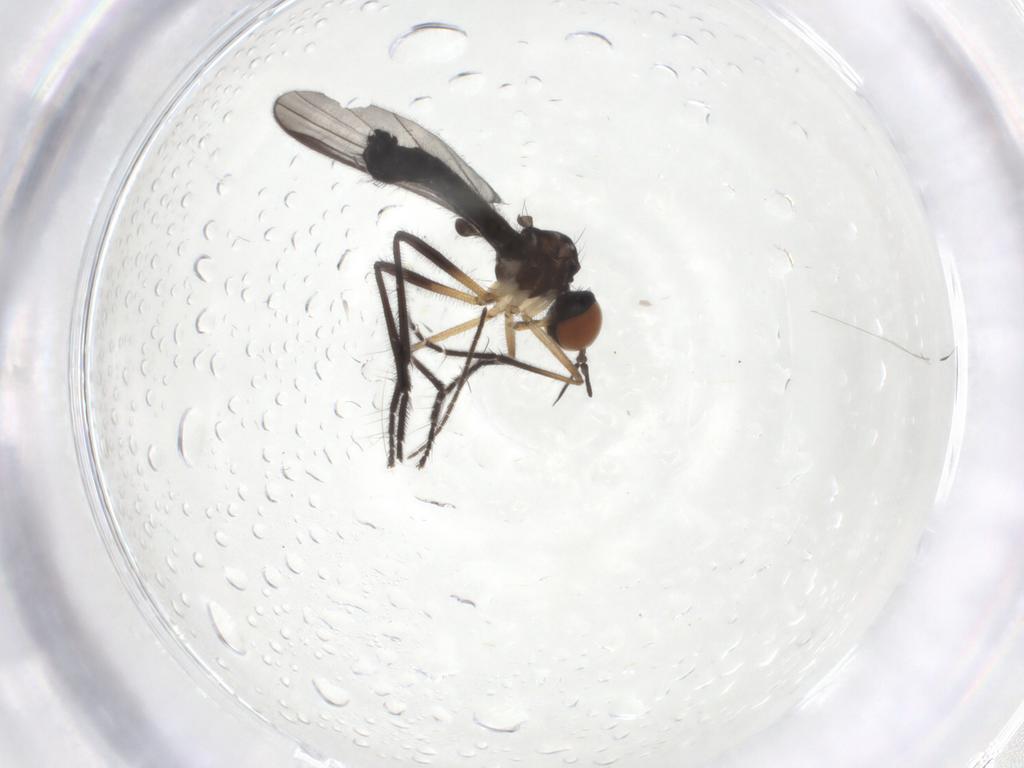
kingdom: Animalia
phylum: Arthropoda
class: Insecta
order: Diptera
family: Empididae
